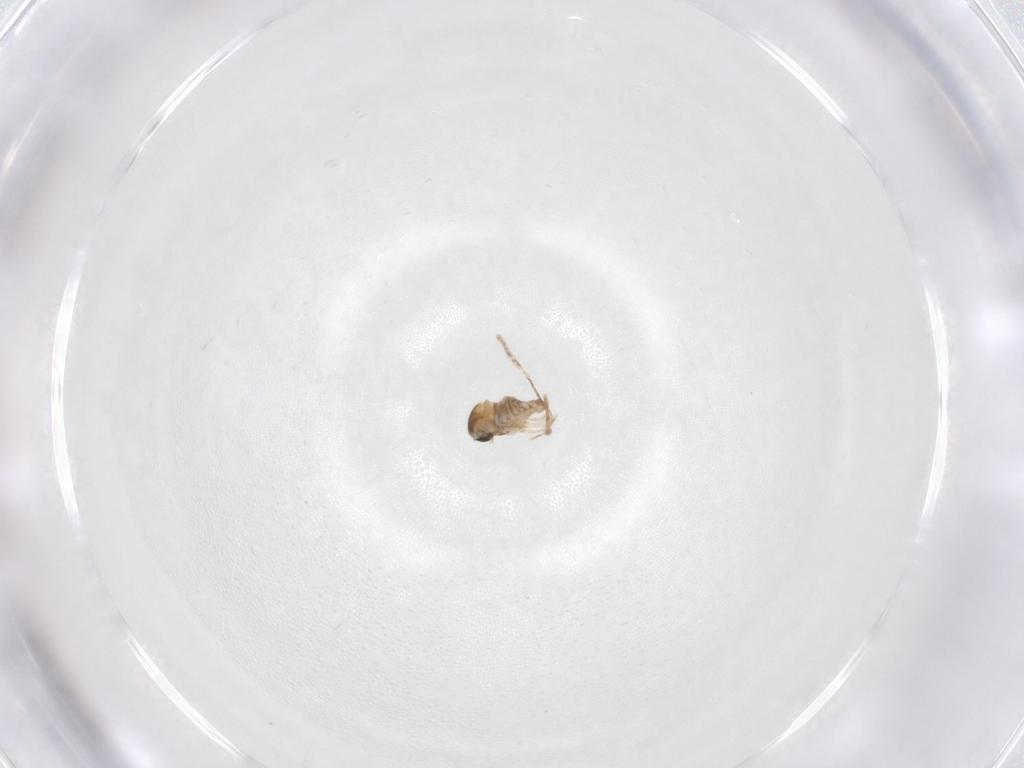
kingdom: Animalia
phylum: Arthropoda
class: Insecta
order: Diptera
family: Cecidomyiidae
